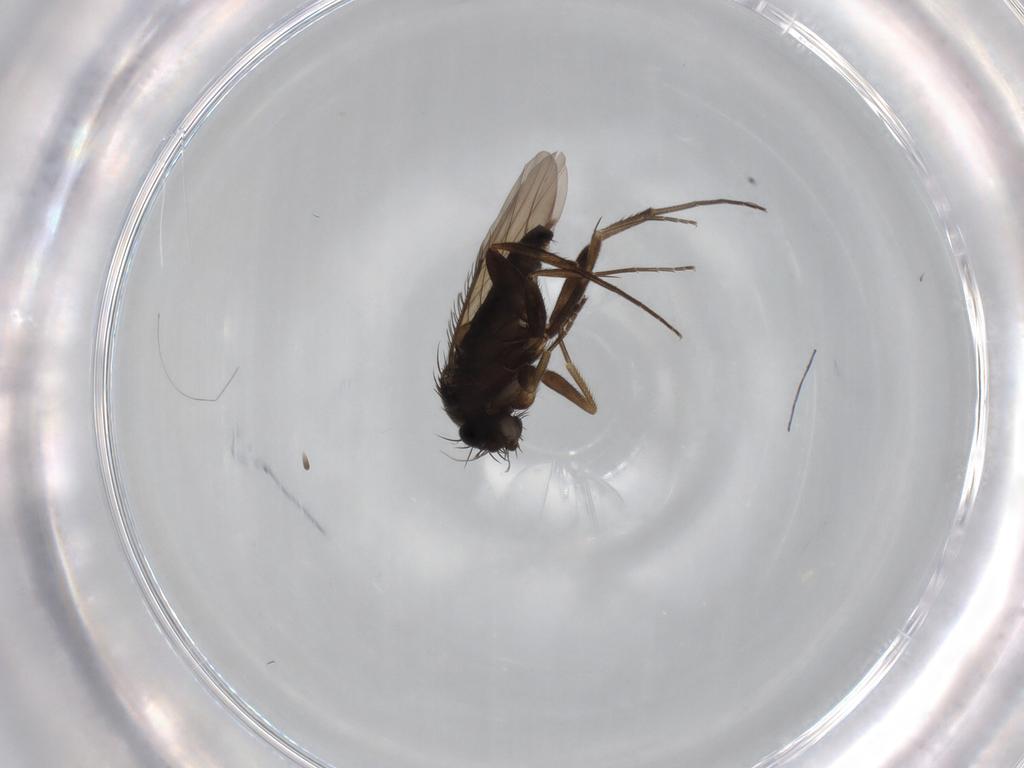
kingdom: Animalia
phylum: Arthropoda
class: Insecta
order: Diptera
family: Phoridae
